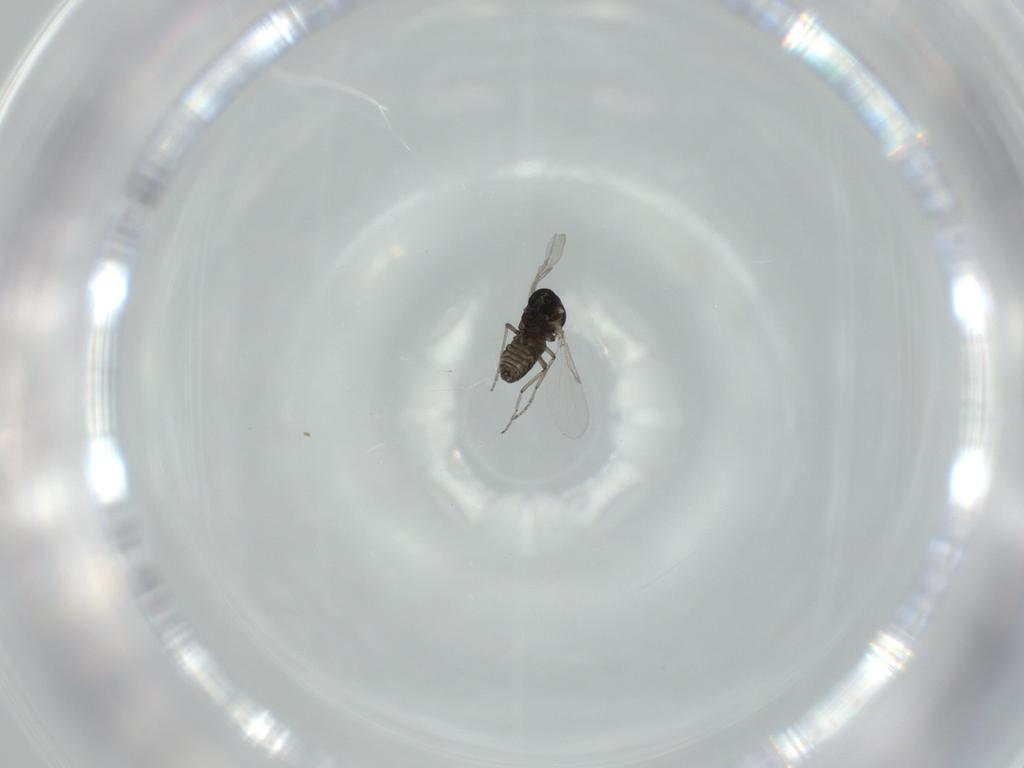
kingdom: Animalia
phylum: Arthropoda
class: Insecta
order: Diptera
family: Ceratopogonidae
